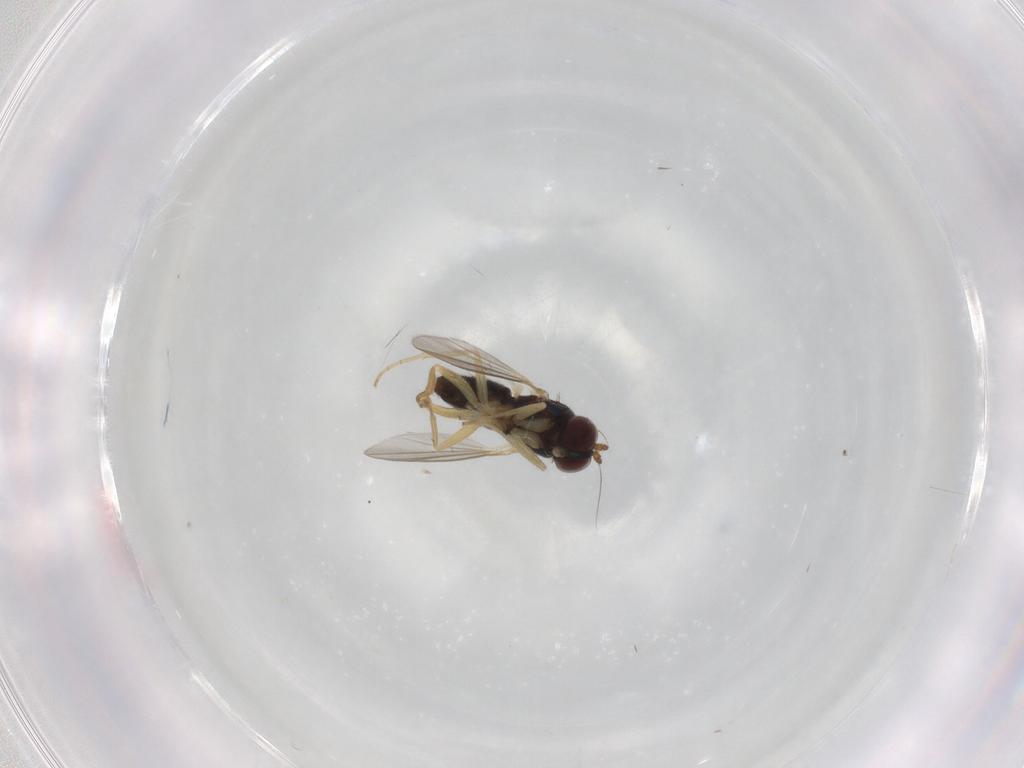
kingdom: Animalia
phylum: Arthropoda
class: Insecta
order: Diptera
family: Dolichopodidae
